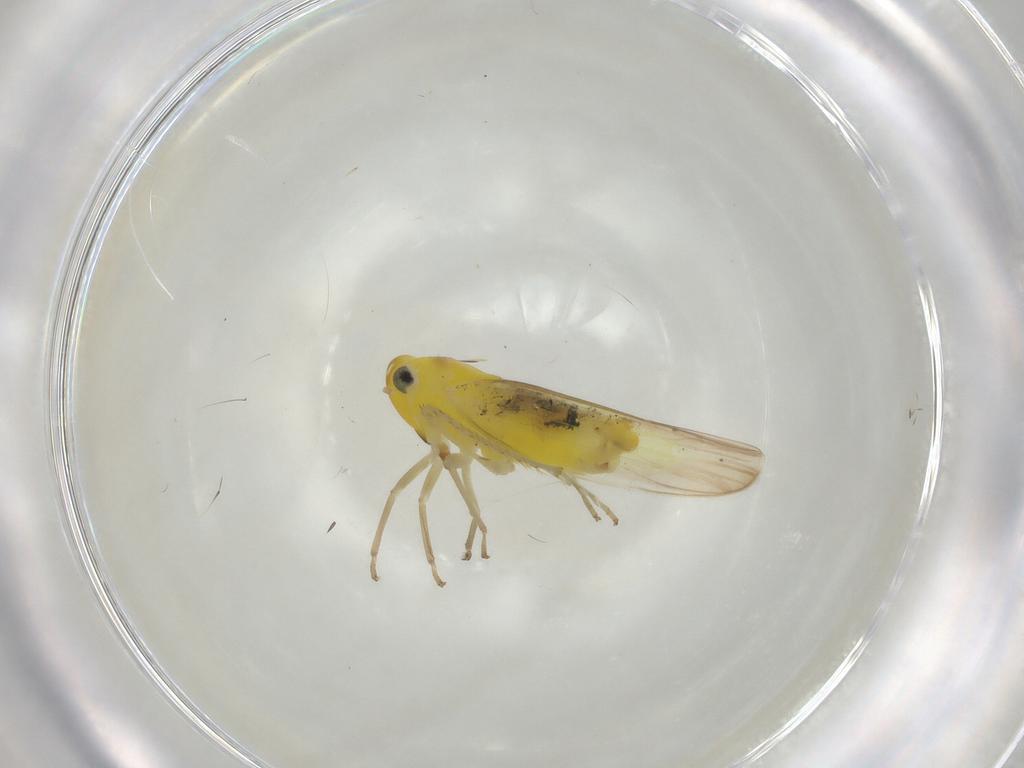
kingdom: Animalia
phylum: Arthropoda
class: Insecta
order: Hemiptera
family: Cicadellidae
